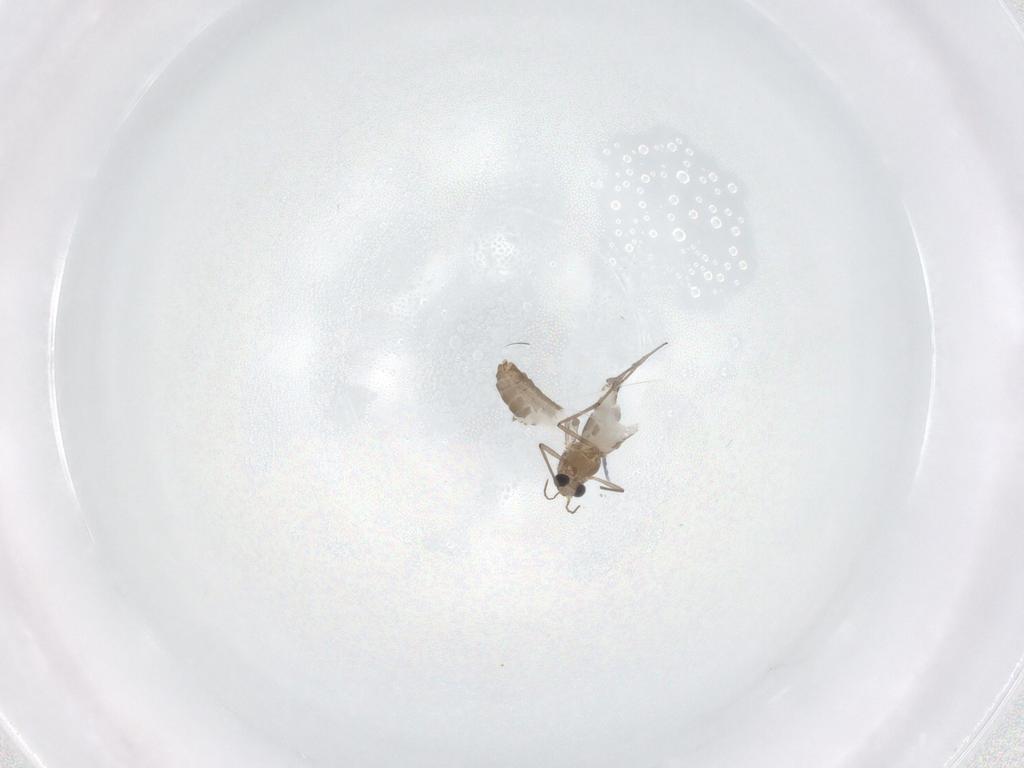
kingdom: Animalia
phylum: Arthropoda
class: Insecta
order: Diptera
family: Chironomidae
